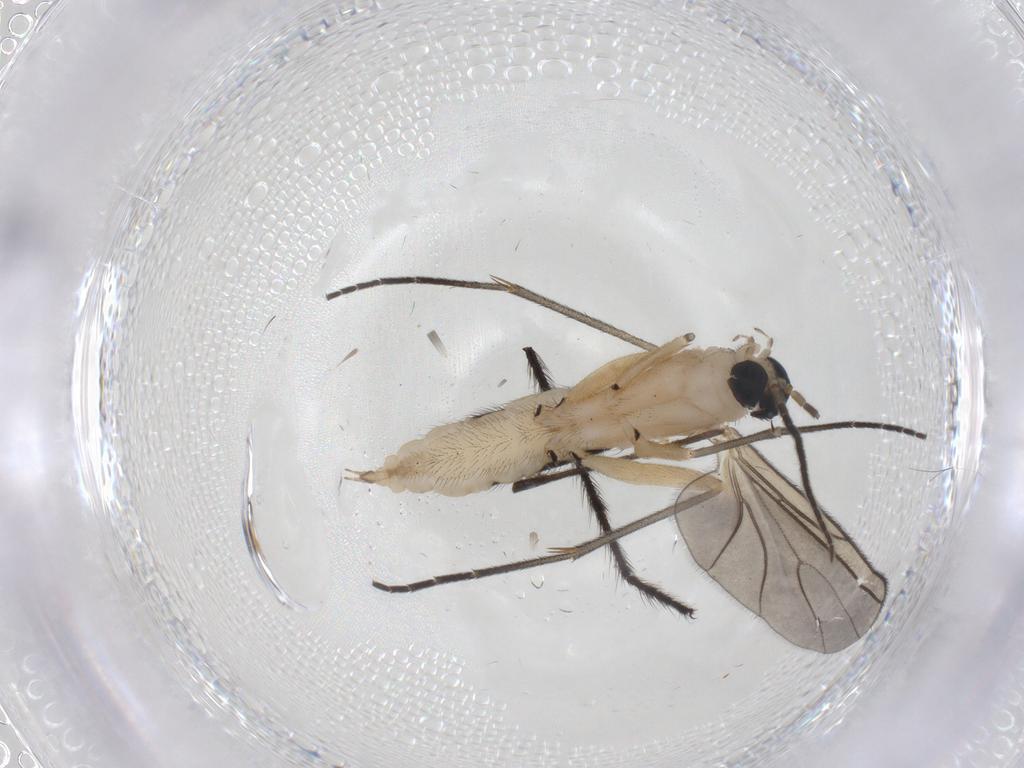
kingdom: Animalia
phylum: Arthropoda
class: Insecta
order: Diptera
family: Sciaridae
